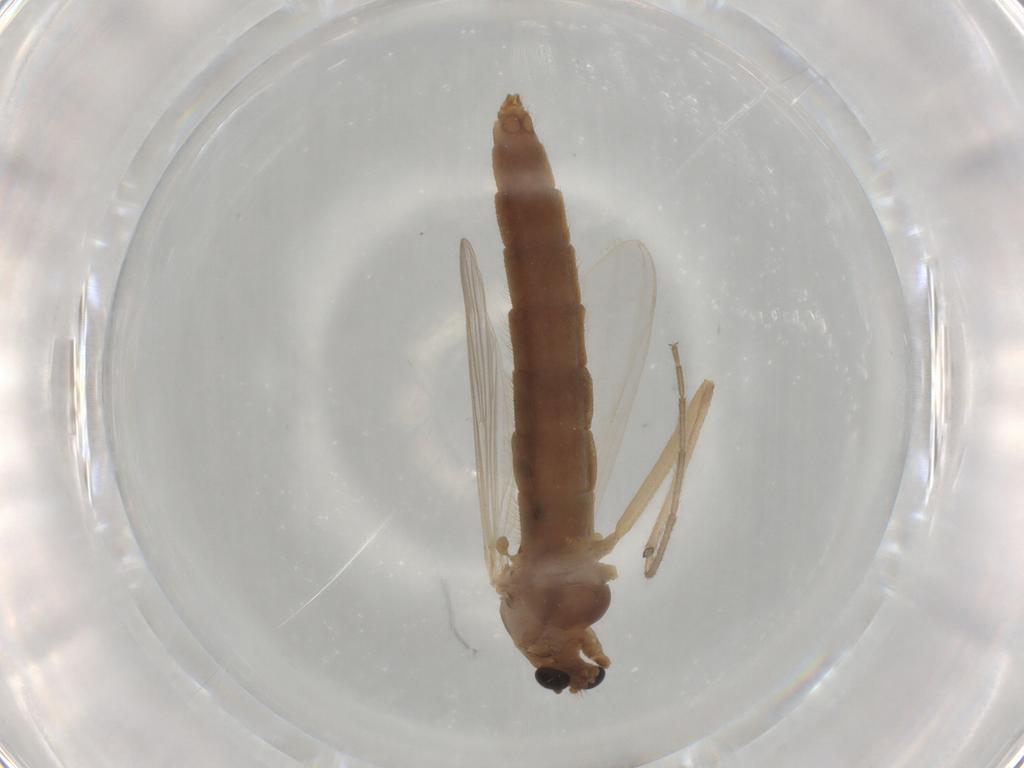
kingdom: Animalia
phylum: Arthropoda
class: Insecta
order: Diptera
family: Chironomidae
